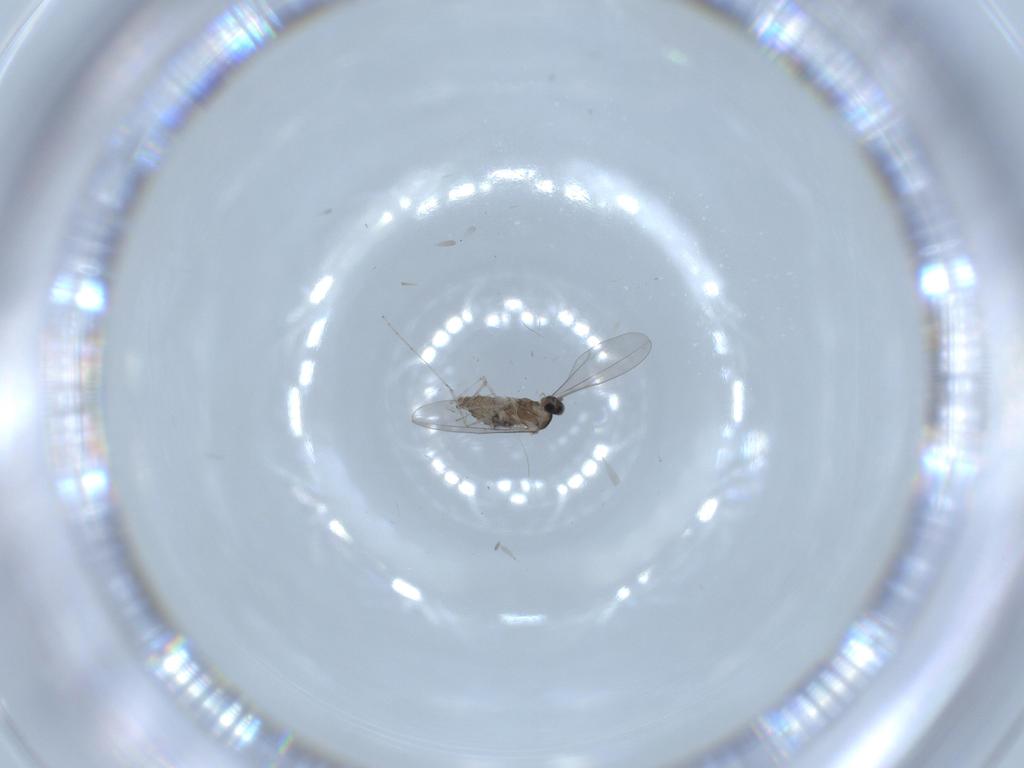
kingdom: Animalia
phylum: Arthropoda
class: Insecta
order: Diptera
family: Cecidomyiidae
